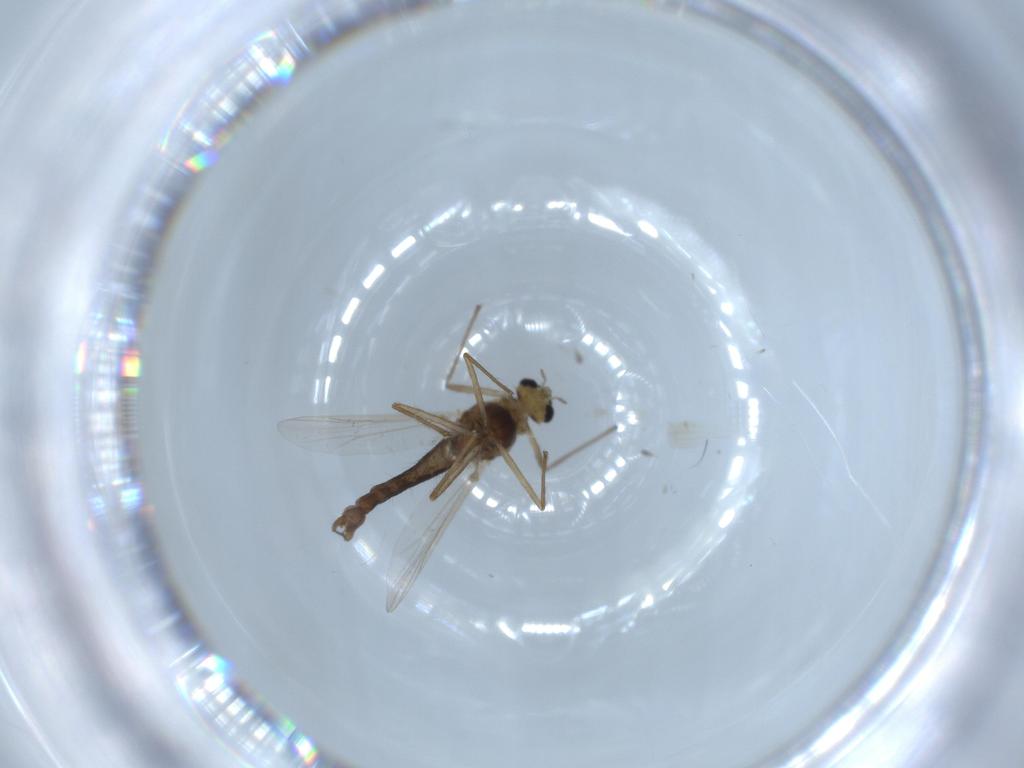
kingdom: Animalia
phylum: Arthropoda
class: Insecta
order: Diptera
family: Chironomidae
